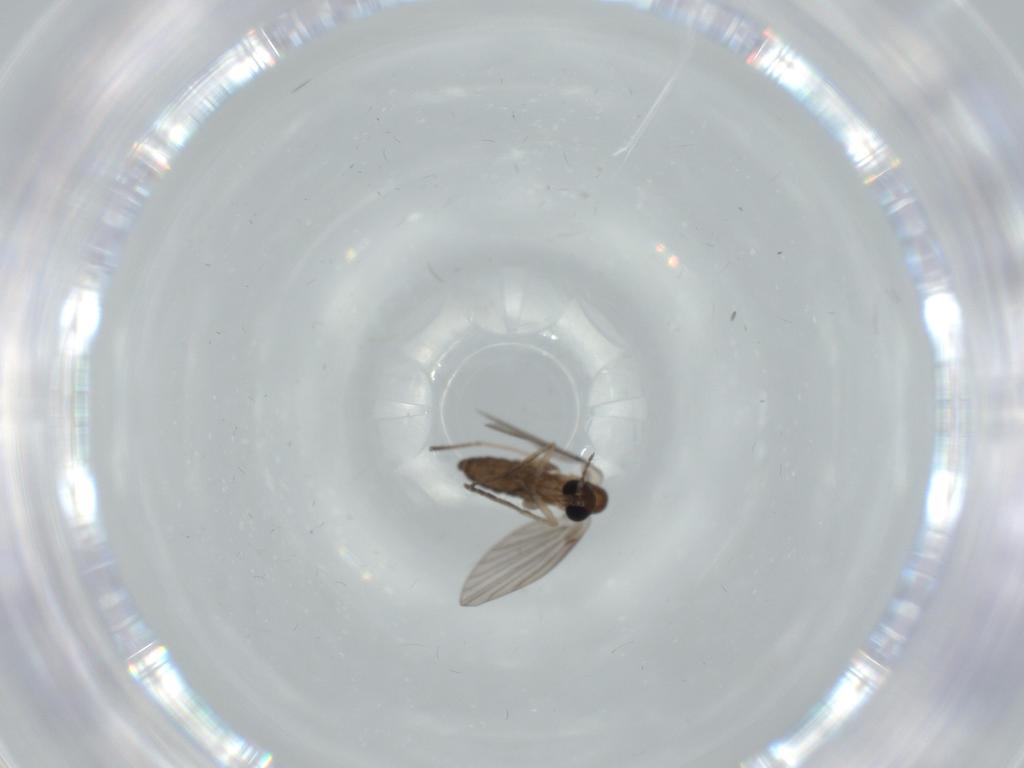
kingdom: Animalia
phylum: Arthropoda
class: Insecta
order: Diptera
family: Psychodidae
